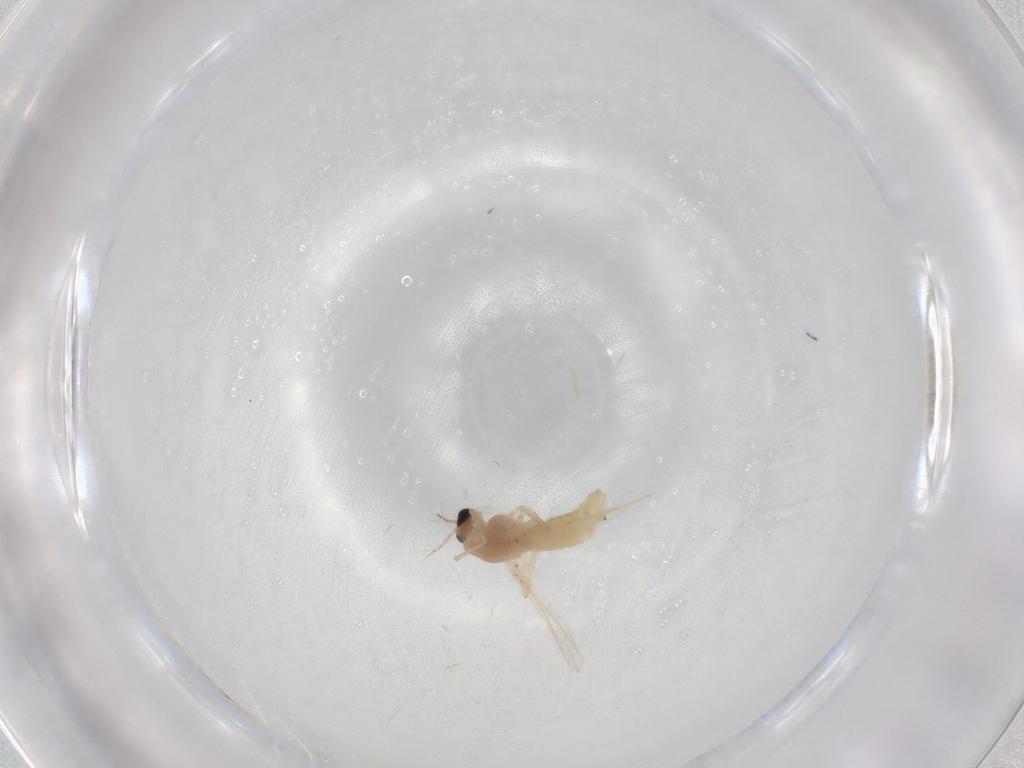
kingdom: Animalia
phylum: Arthropoda
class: Insecta
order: Diptera
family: Chironomidae
